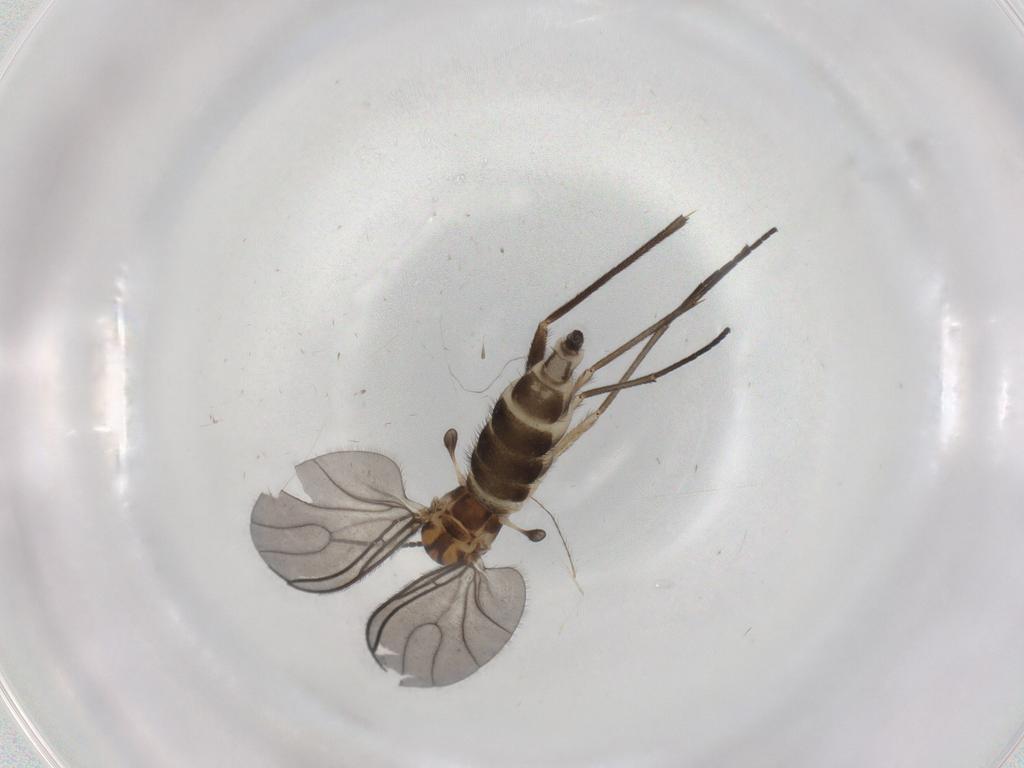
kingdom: Animalia
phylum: Arthropoda
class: Insecta
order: Diptera
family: Sciaridae
